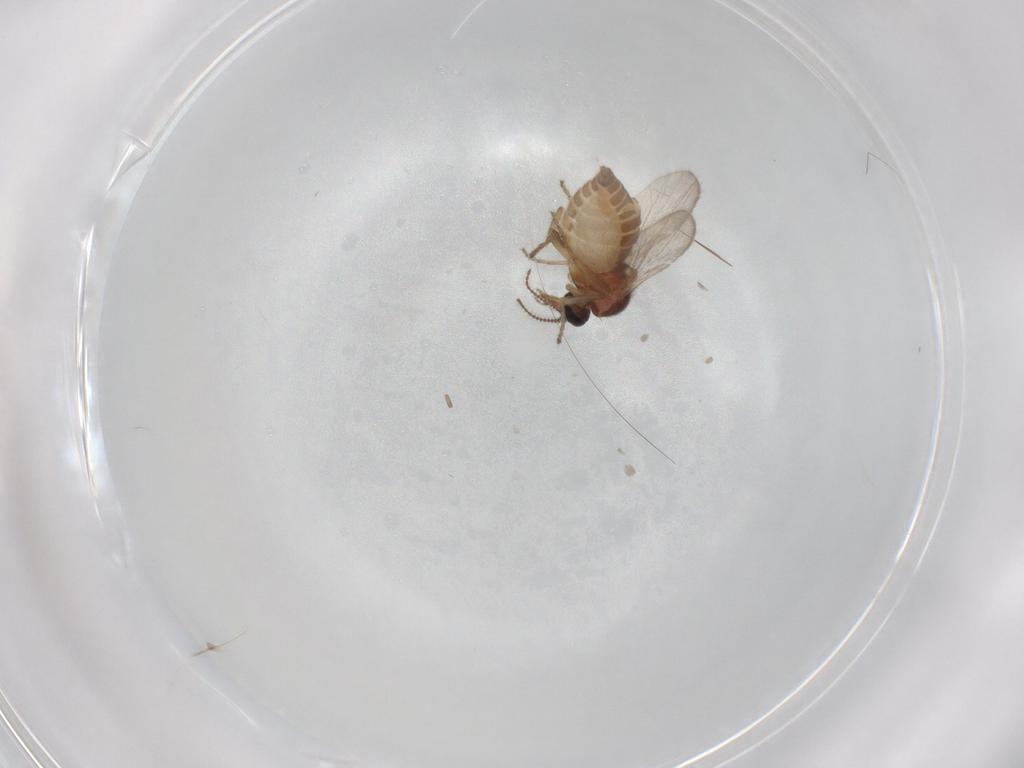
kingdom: Animalia
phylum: Arthropoda
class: Insecta
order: Diptera
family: Ceratopogonidae
